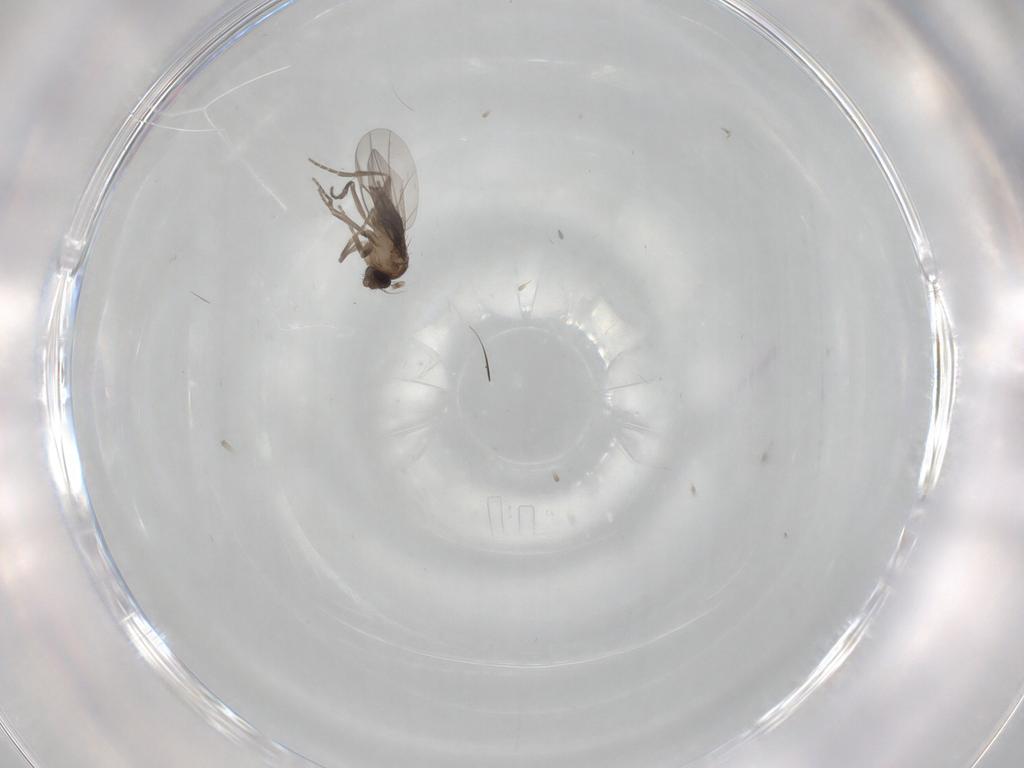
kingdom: Animalia
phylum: Arthropoda
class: Insecta
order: Diptera
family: Phoridae
